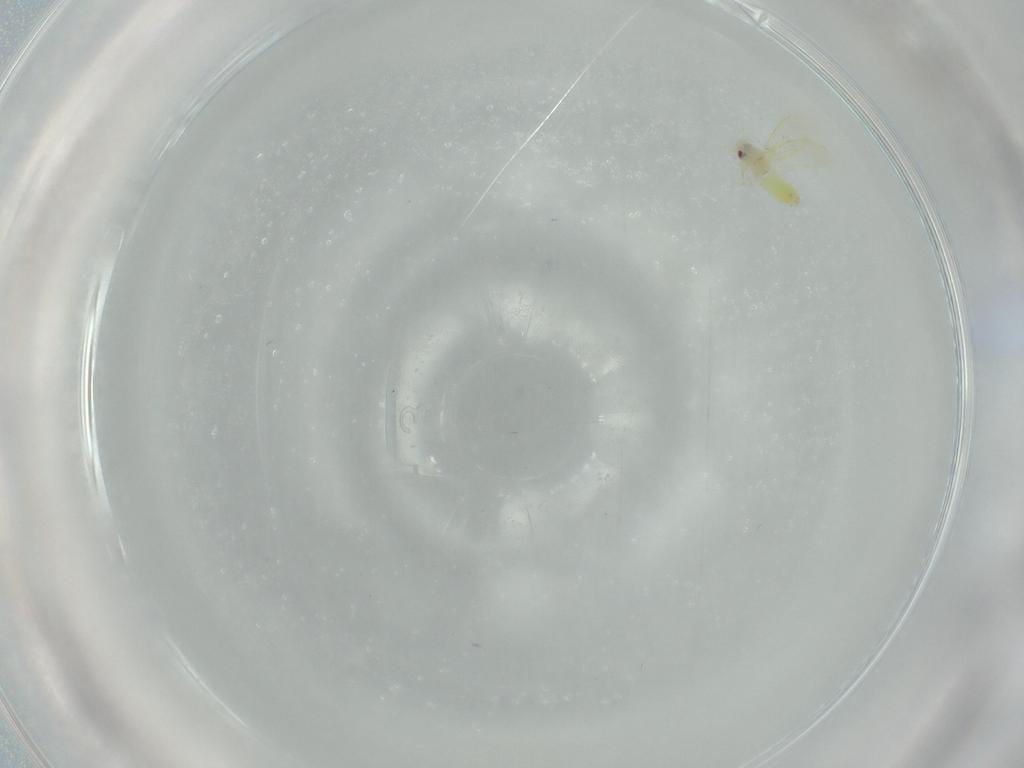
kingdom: Animalia
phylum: Arthropoda
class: Insecta
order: Hemiptera
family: Aleyrodidae
